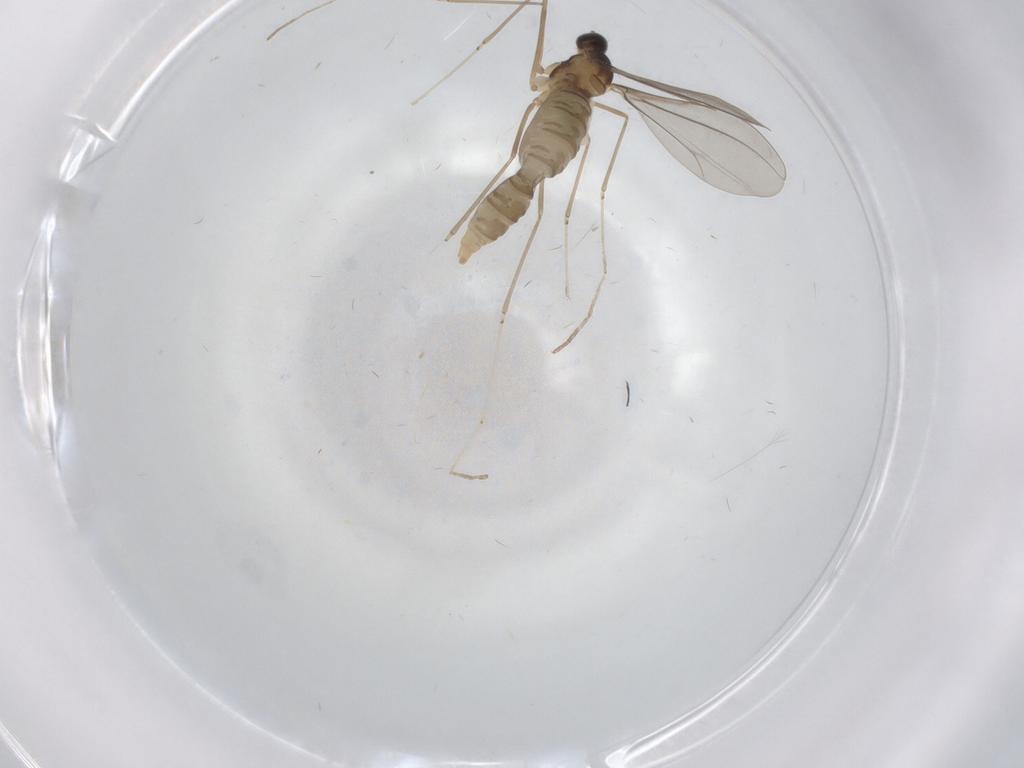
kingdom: Animalia
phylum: Arthropoda
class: Insecta
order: Diptera
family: Cecidomyiidae
